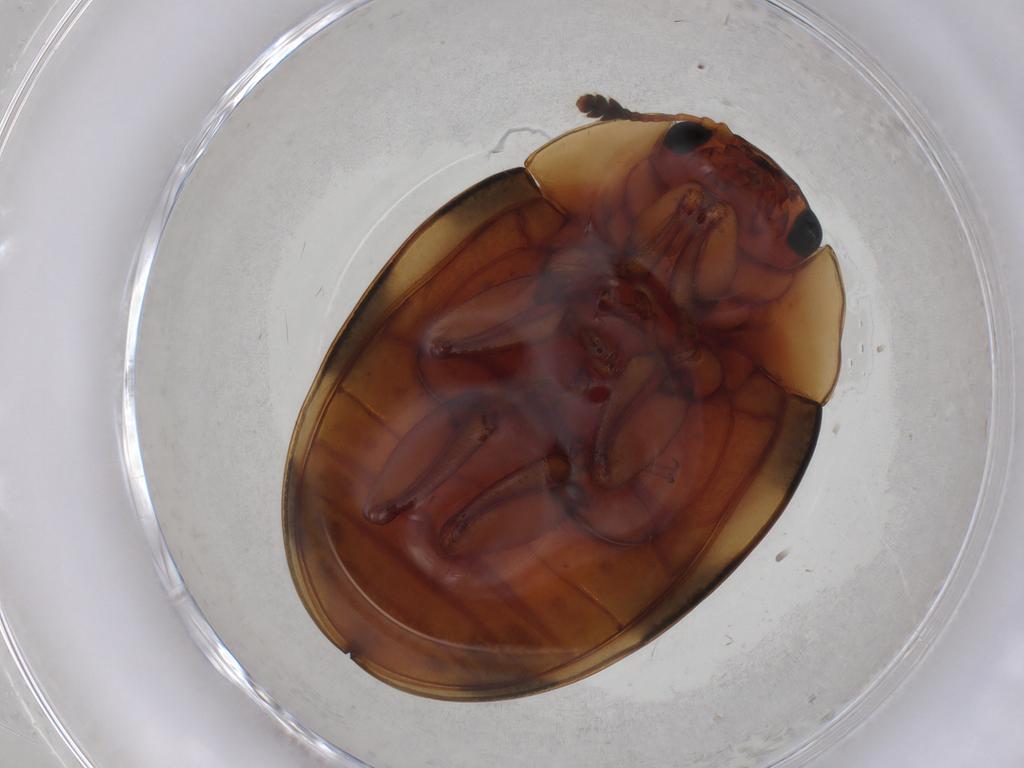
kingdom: Animalia
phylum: Arthropoda
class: Insecta
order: Coleoptera
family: Erotylidae
